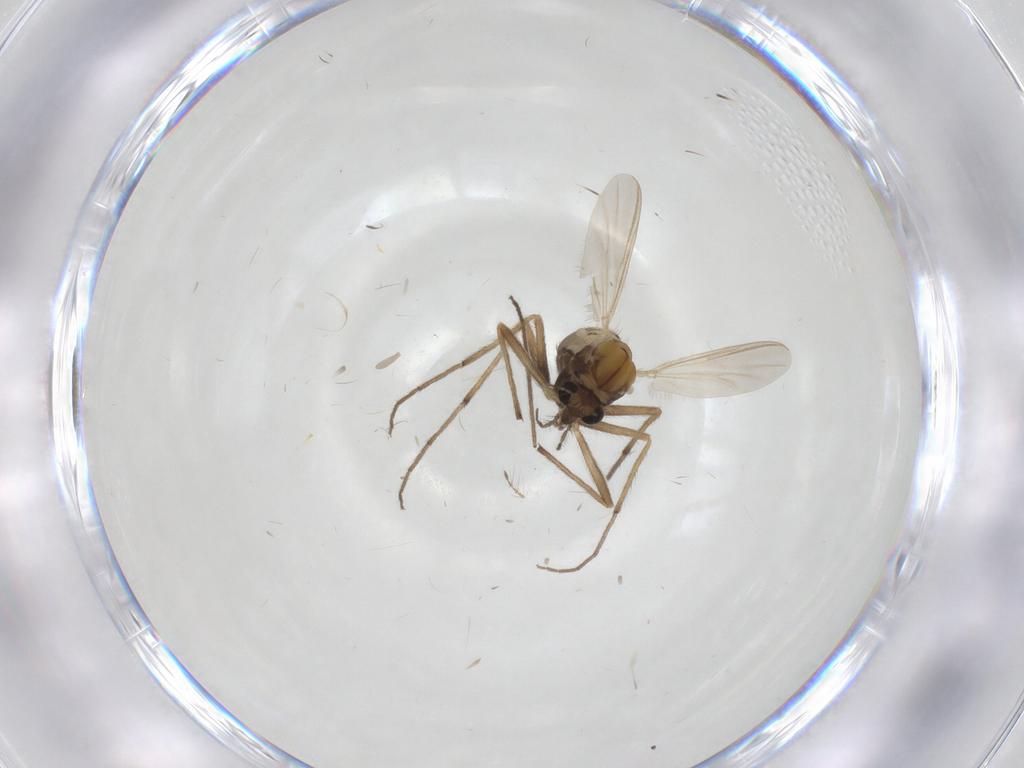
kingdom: Animalia
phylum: Arthropoda
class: Insecta
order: Diptera
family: Chironomidae
